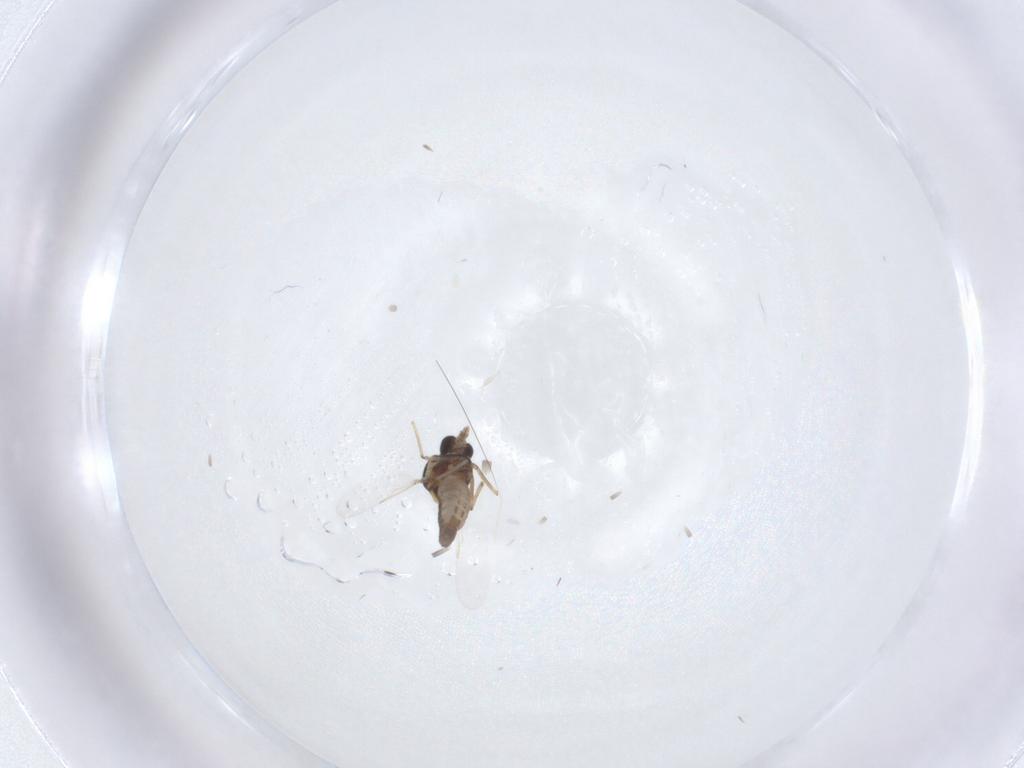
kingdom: Animalia
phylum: Arthropoda
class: Insecta
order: Diptera
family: Ceratopogonidae
